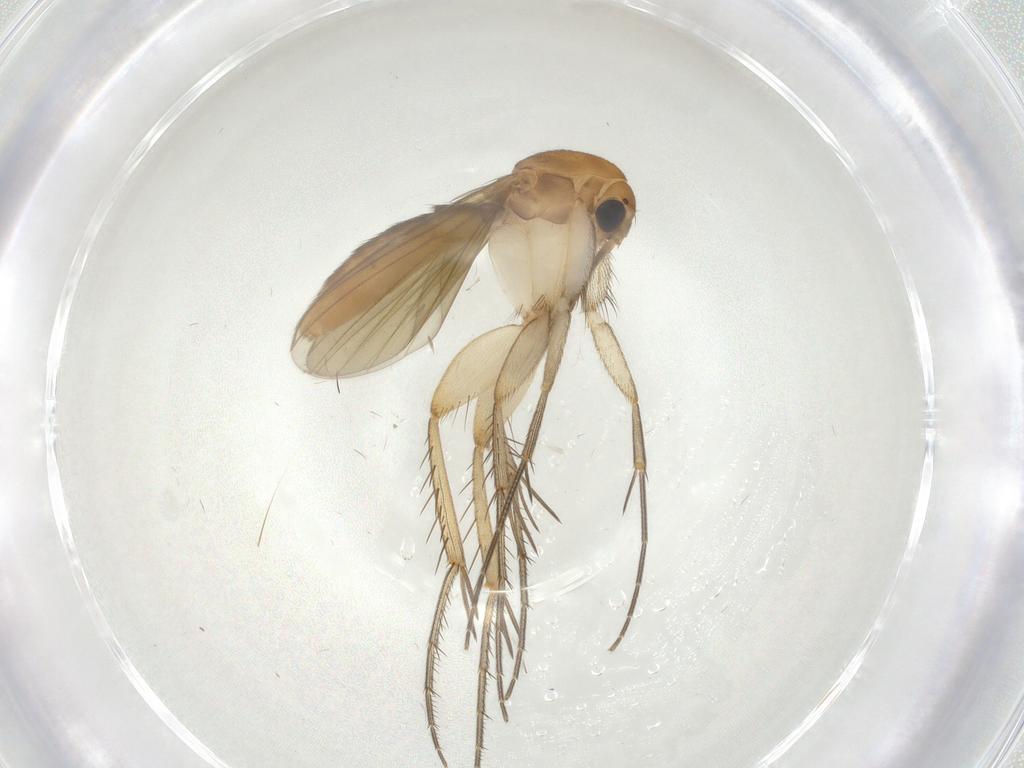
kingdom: Animalia
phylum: Arthropoda
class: Insecta
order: Diptera
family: Mycetophilidae
